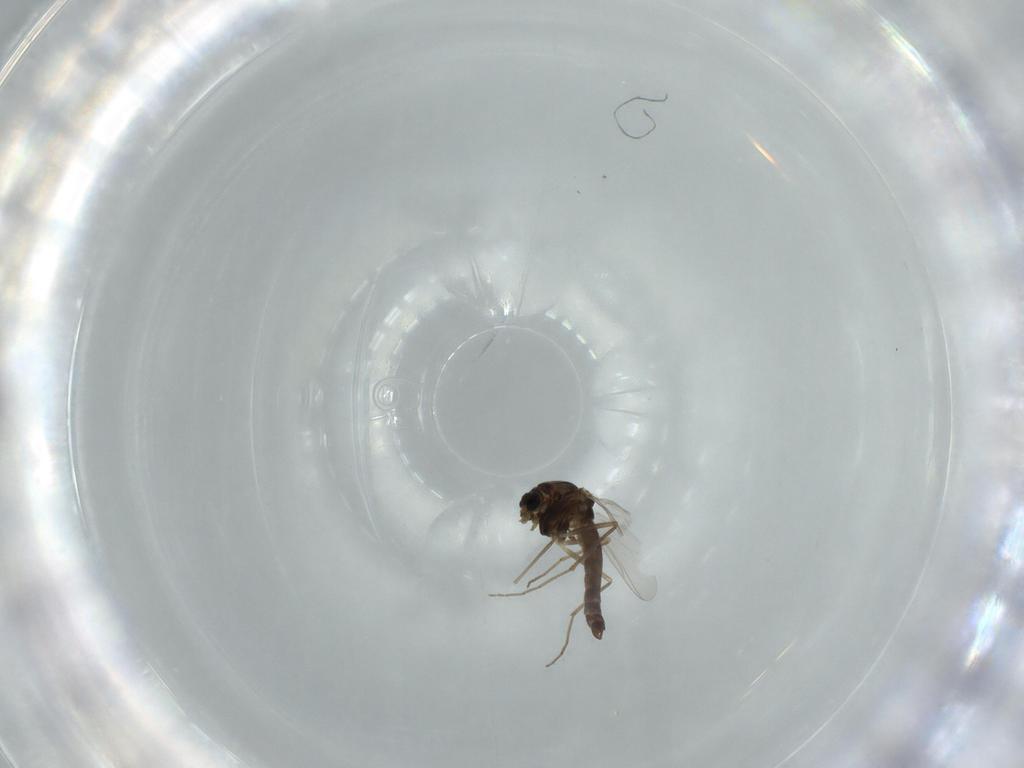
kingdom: Animalia
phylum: Arthropoda
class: Insecta
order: Diptera
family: Chironomidae
